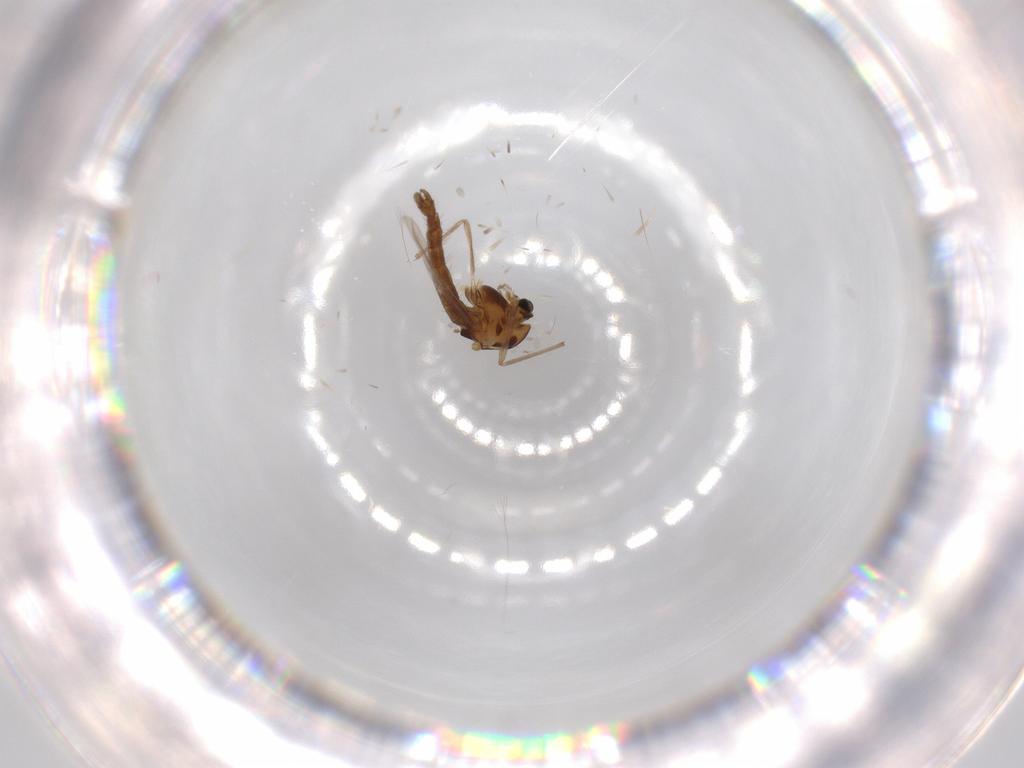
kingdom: Animalia
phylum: Arthropoda
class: Insecta
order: Diptera
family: Chironomidae
